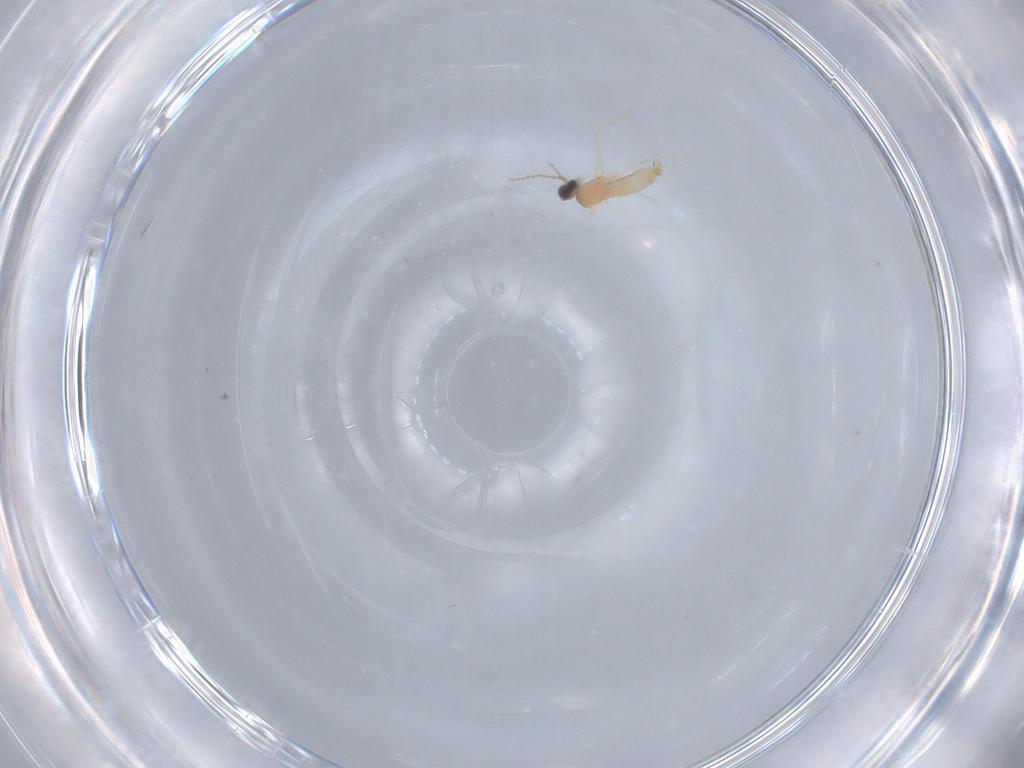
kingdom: Animalia
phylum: Arthropoda
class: Insecta
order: Diptera
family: Cecidomyiidae
